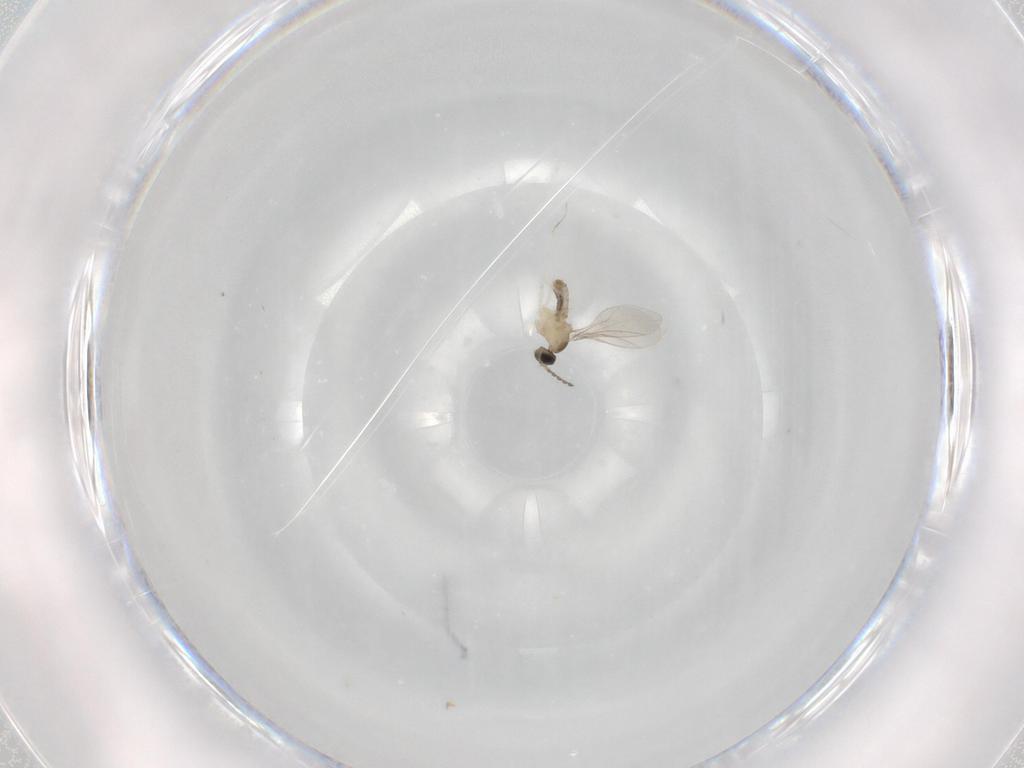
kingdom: Animalia
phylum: Arthropoda
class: Insecta
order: Diptera
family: Cecidomyiidae
